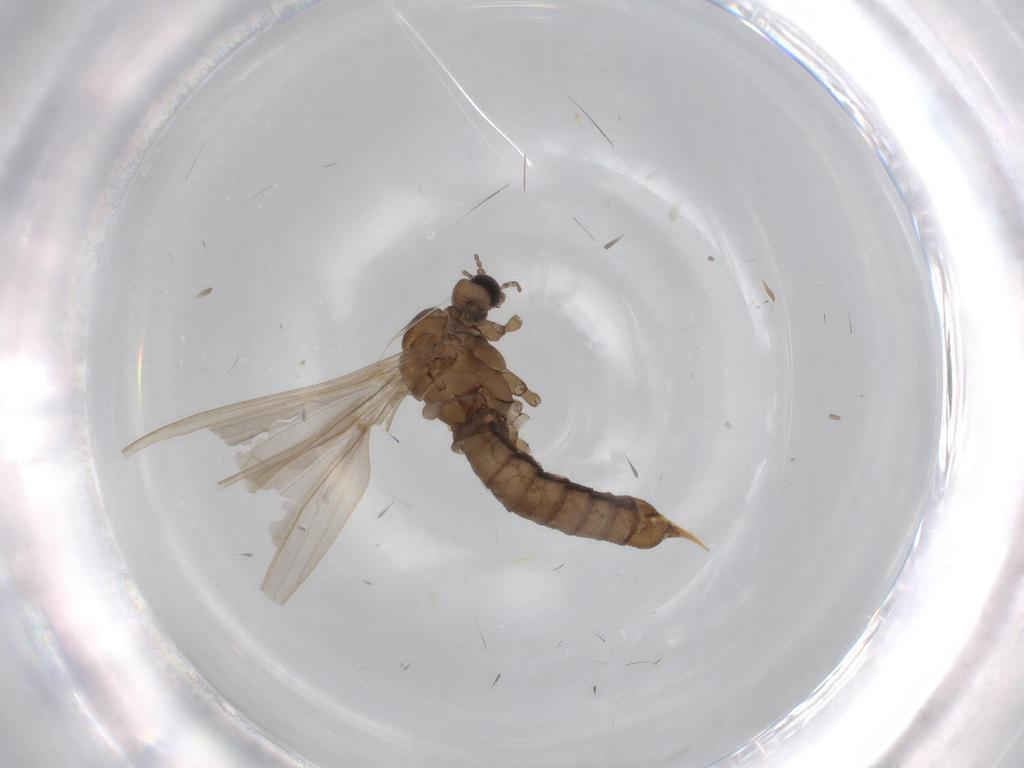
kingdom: Animalia
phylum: Arthropoda
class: Insecta
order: Diptera
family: Limoniidae
